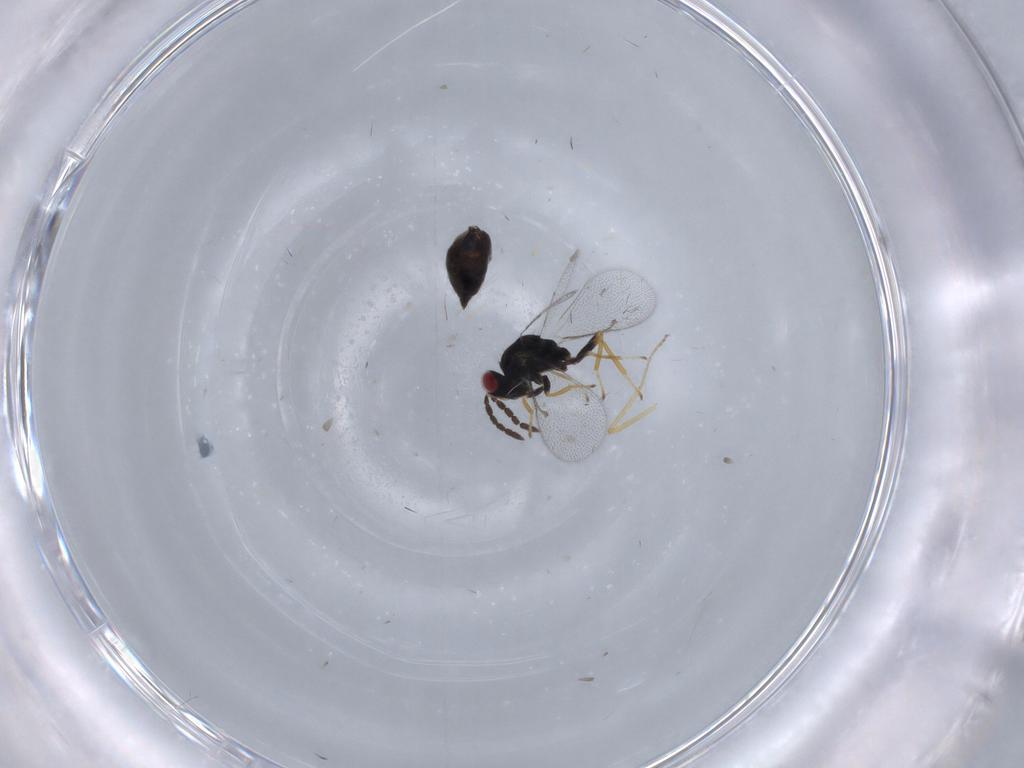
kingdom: Animalia
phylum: Arthropoda
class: Insecta
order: Hymenoptera
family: Eulophidae
